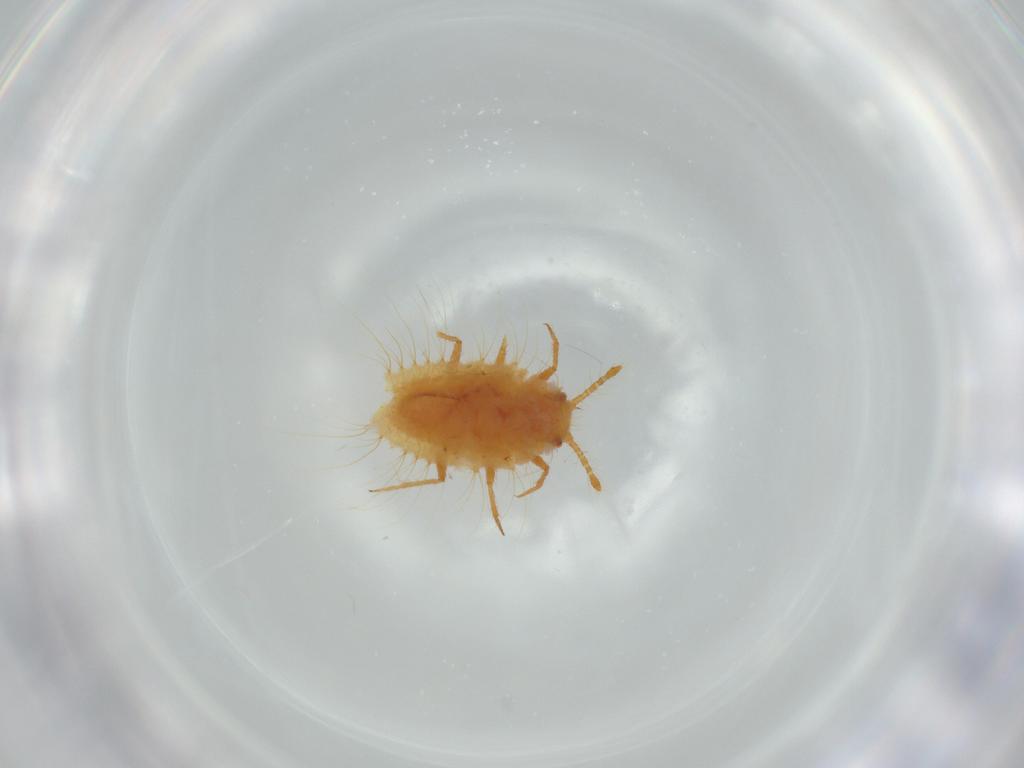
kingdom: Animalia
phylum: Arthropoda
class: Insecta
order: Hemiptera
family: Coccoidea_incertae_sedis
